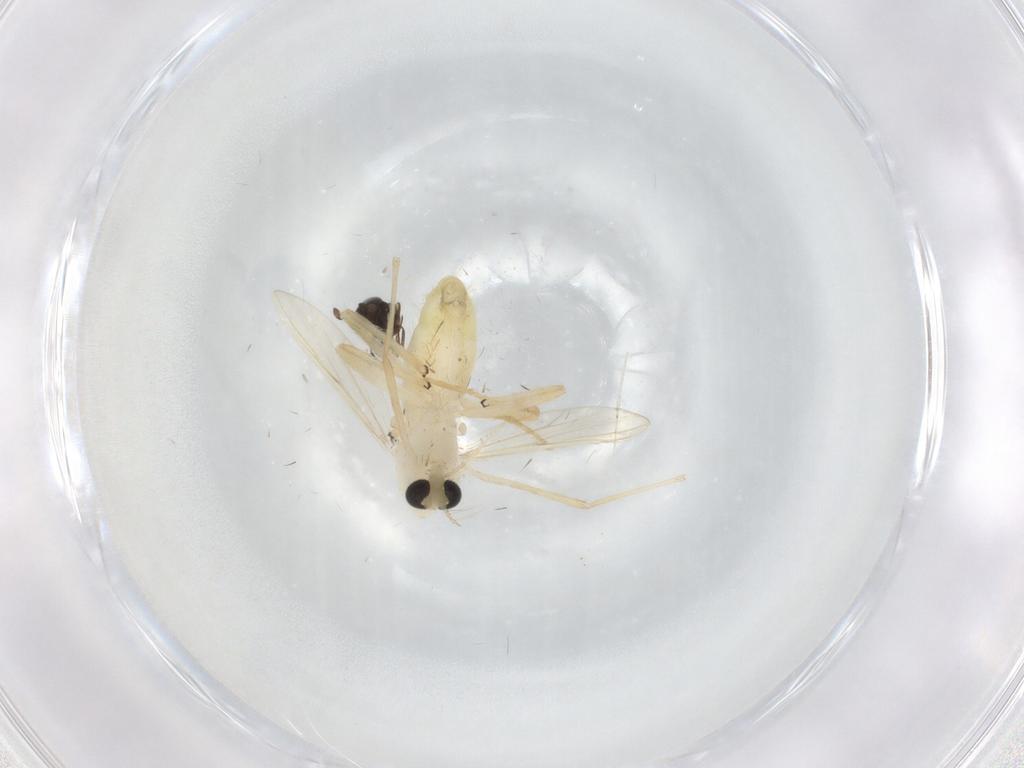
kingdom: Animalia
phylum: Arthropoda
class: Insecta
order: Diptera
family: Chironomidae
